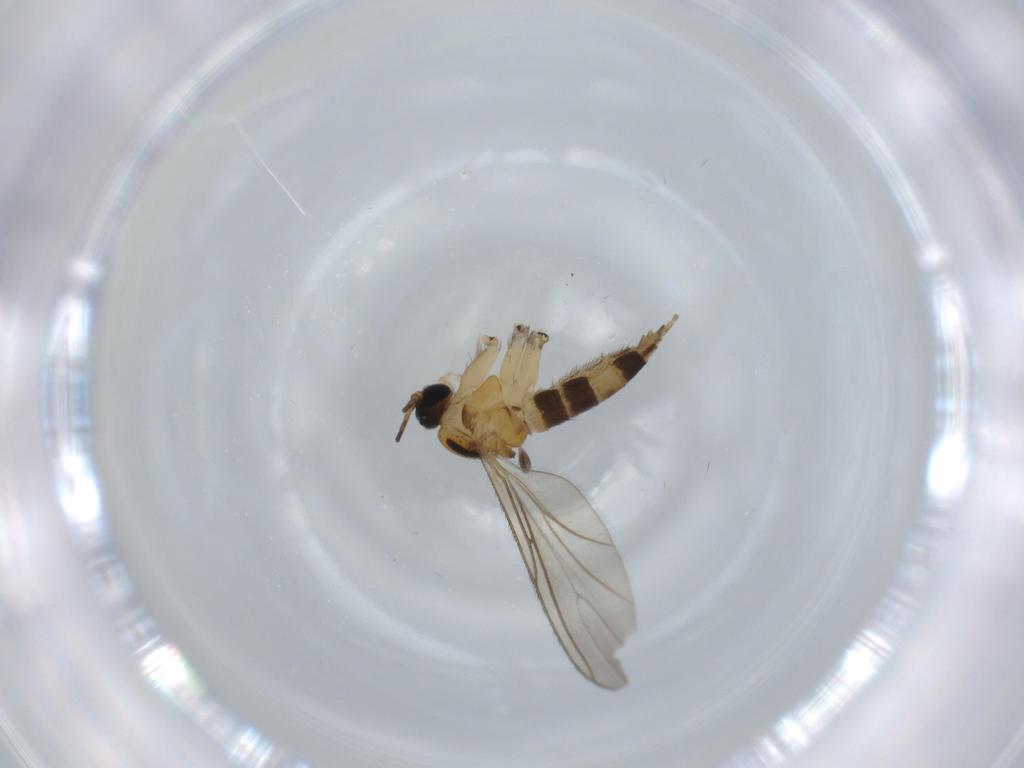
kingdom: Animalia
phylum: Arthropoda
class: Insecta
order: Diptera
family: Sciaridae
